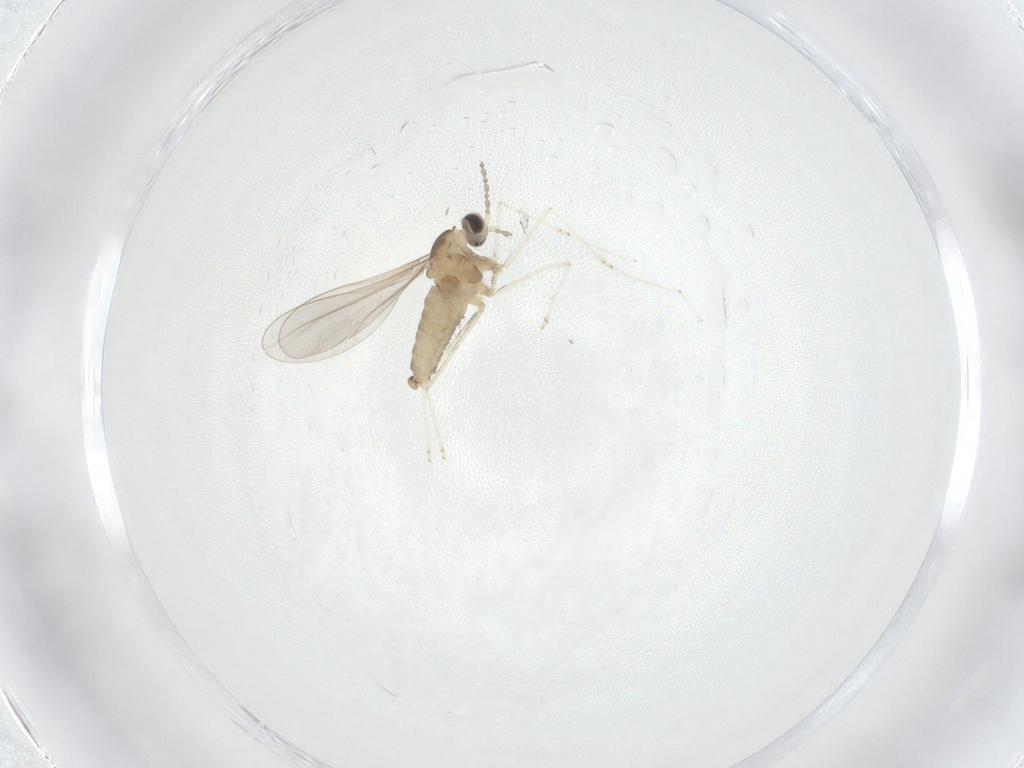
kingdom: Animalia
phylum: Arthropoda
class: Insecta
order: Diptera
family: Cecidomyiidae
